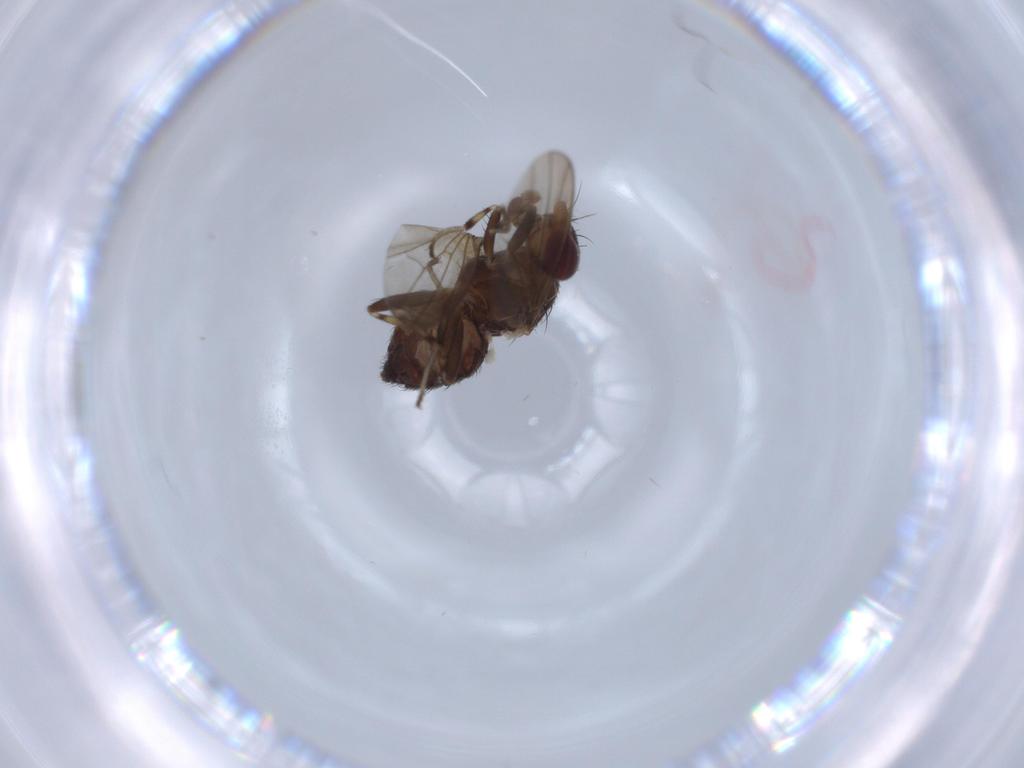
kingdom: Animalia
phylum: Arthropoda
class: Insecta
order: Diptera
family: Heleomyzidae
